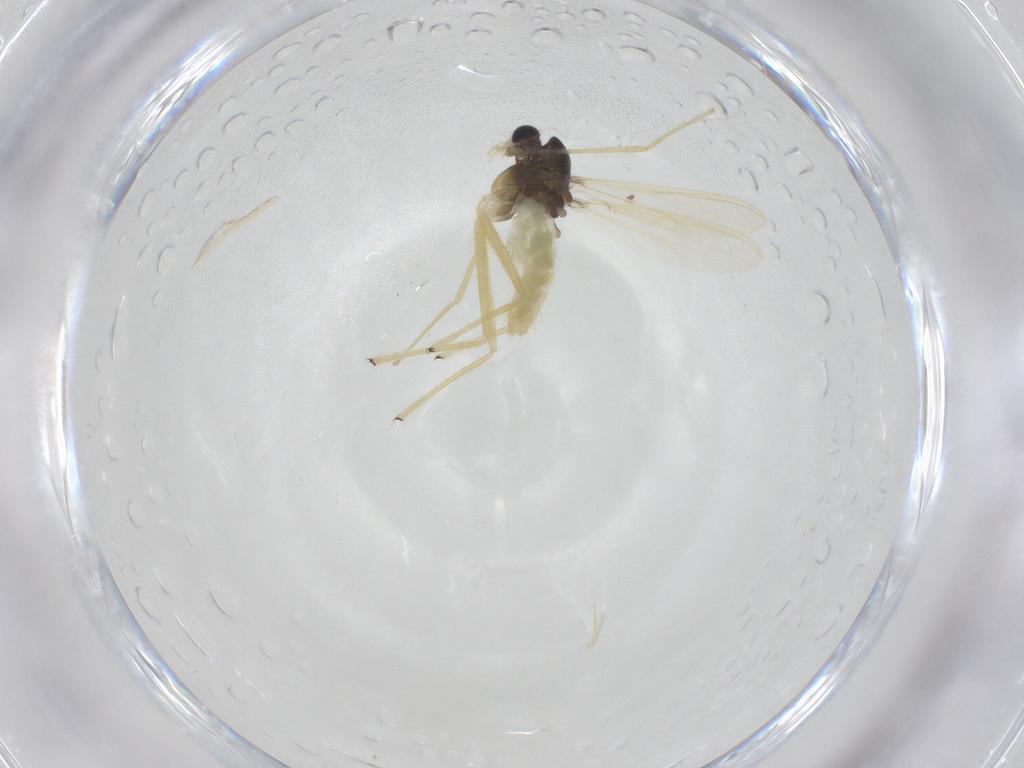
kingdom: Animalia
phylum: Arthropoda
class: Insecta
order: Diptera
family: Chironomidae
